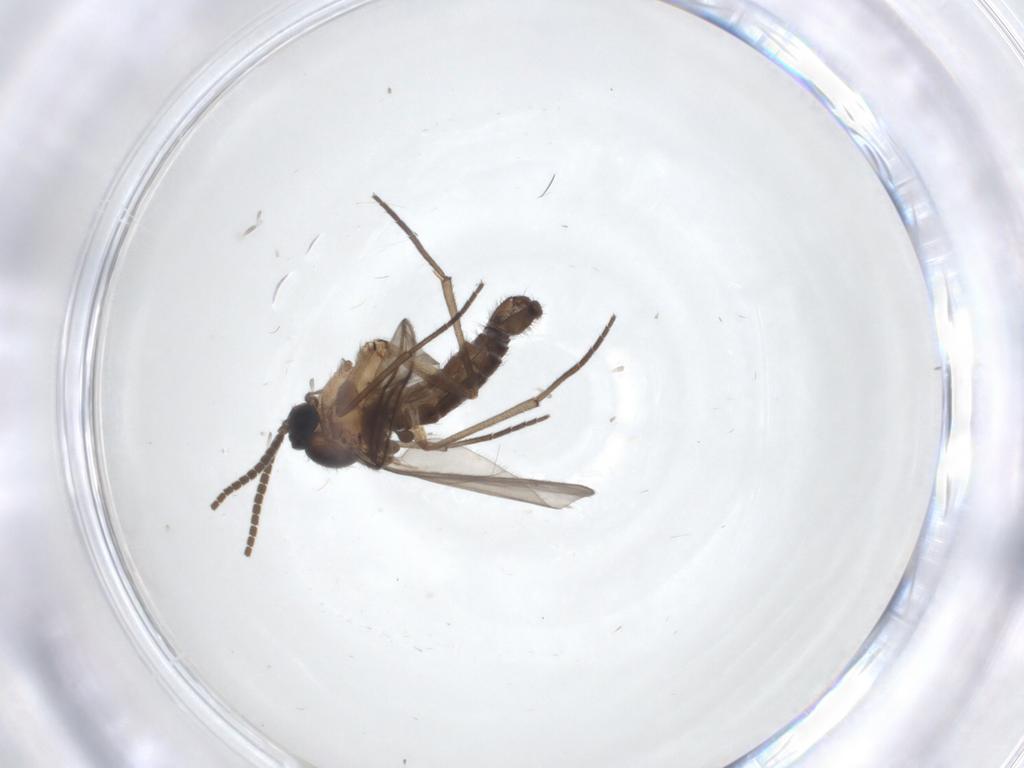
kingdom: Animalia
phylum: Arthropoda
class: Insecta
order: Diptera
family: Sciaridae
